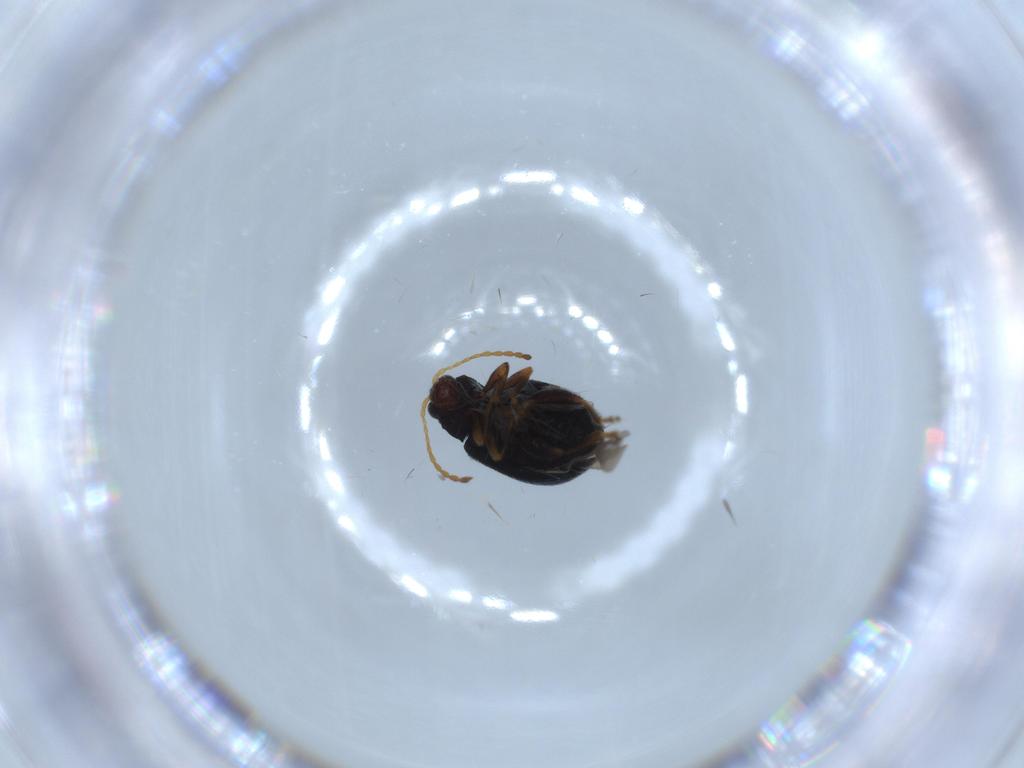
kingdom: Animalia
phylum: Arthropoda
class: Insecta
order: Coleoptera
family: Chrysomelidae
